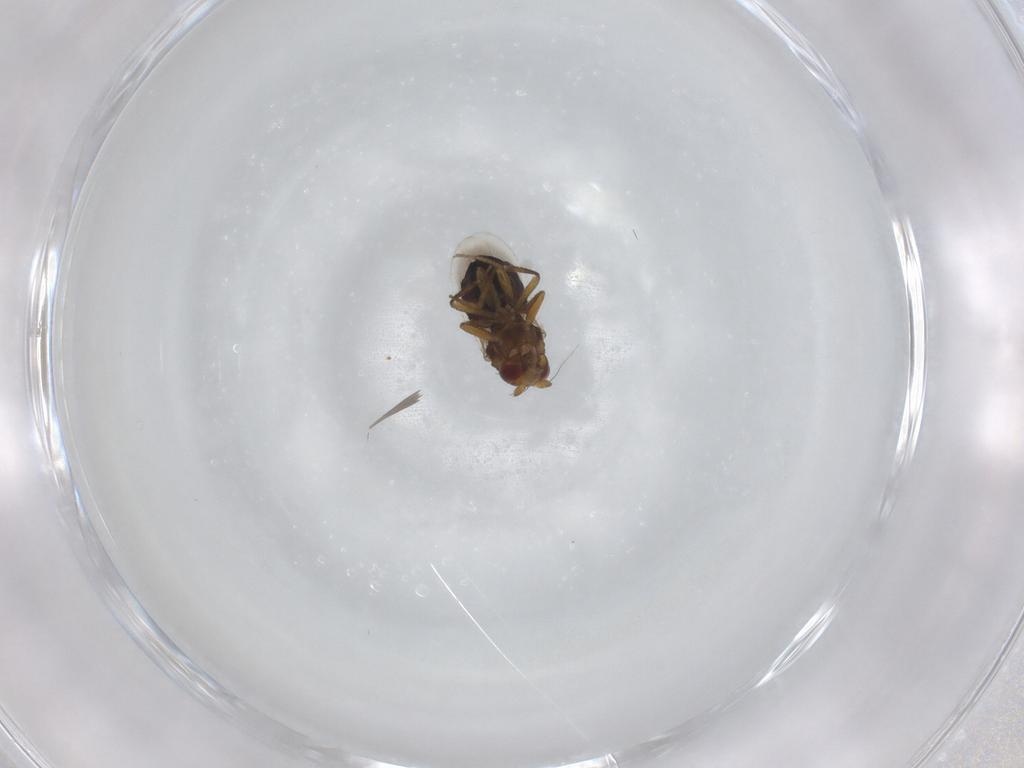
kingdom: Animalia
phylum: Arthropoda
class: Insecta
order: Diptera
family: Sphaeroceridae
